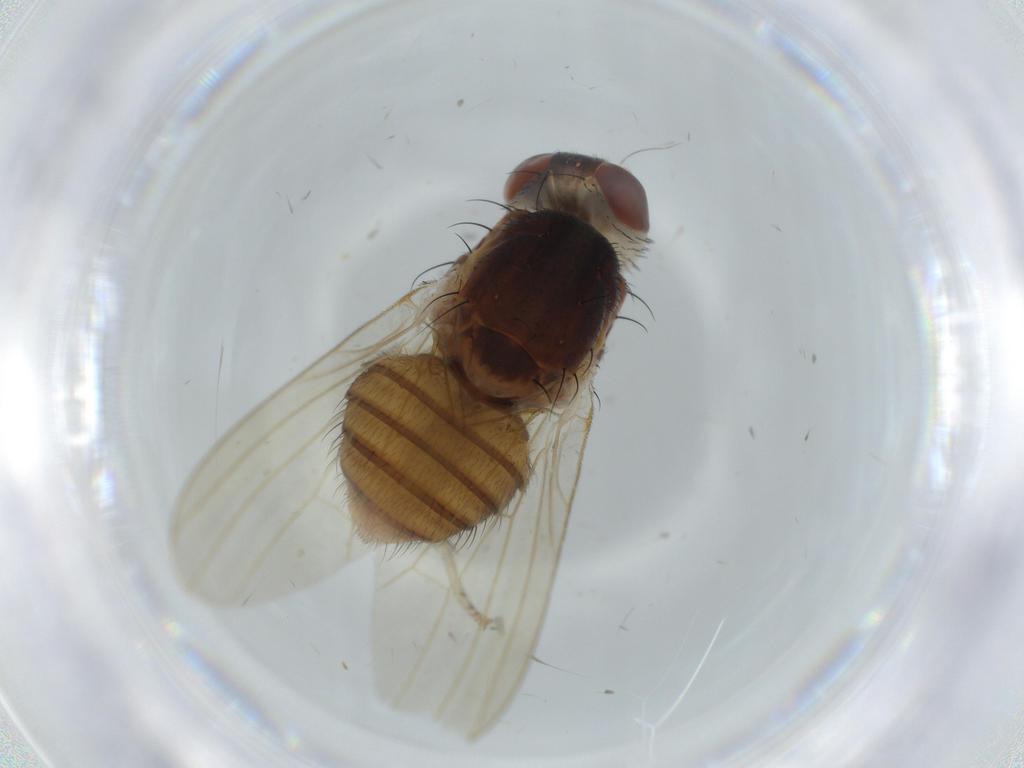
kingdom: Animalia
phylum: Arthropoda
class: Insecta
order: Diptera
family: Lauxaniidae
